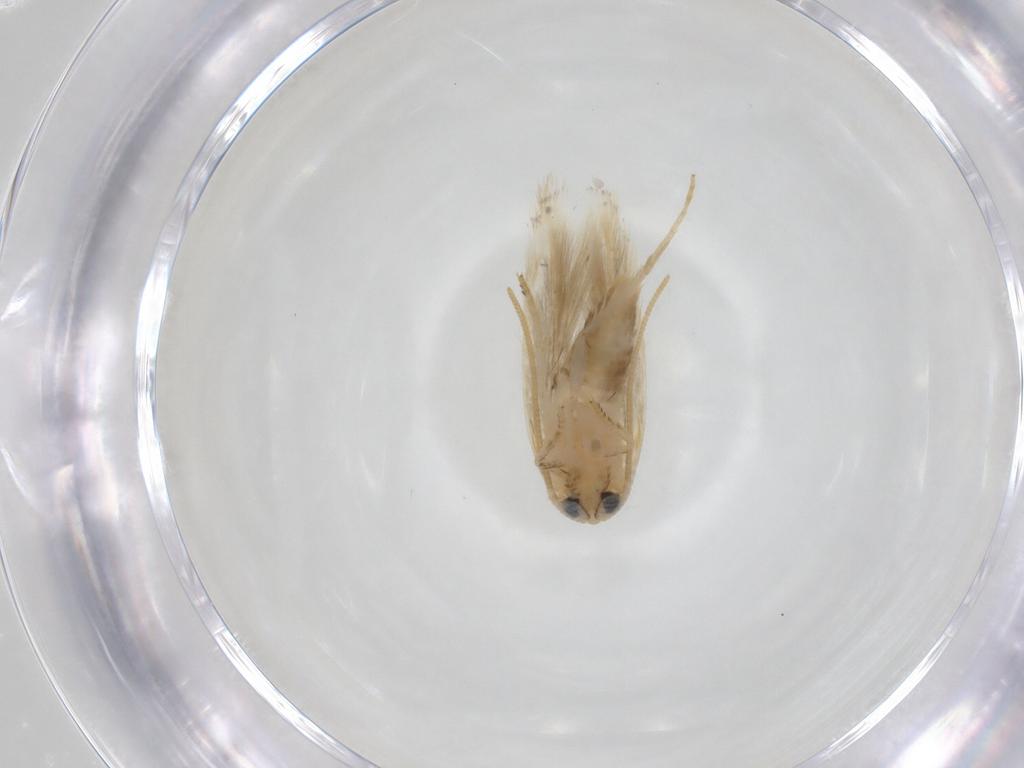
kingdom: Animalia
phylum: Arthropoda
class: Insecta
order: Lepidoptera
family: Opostegidae
